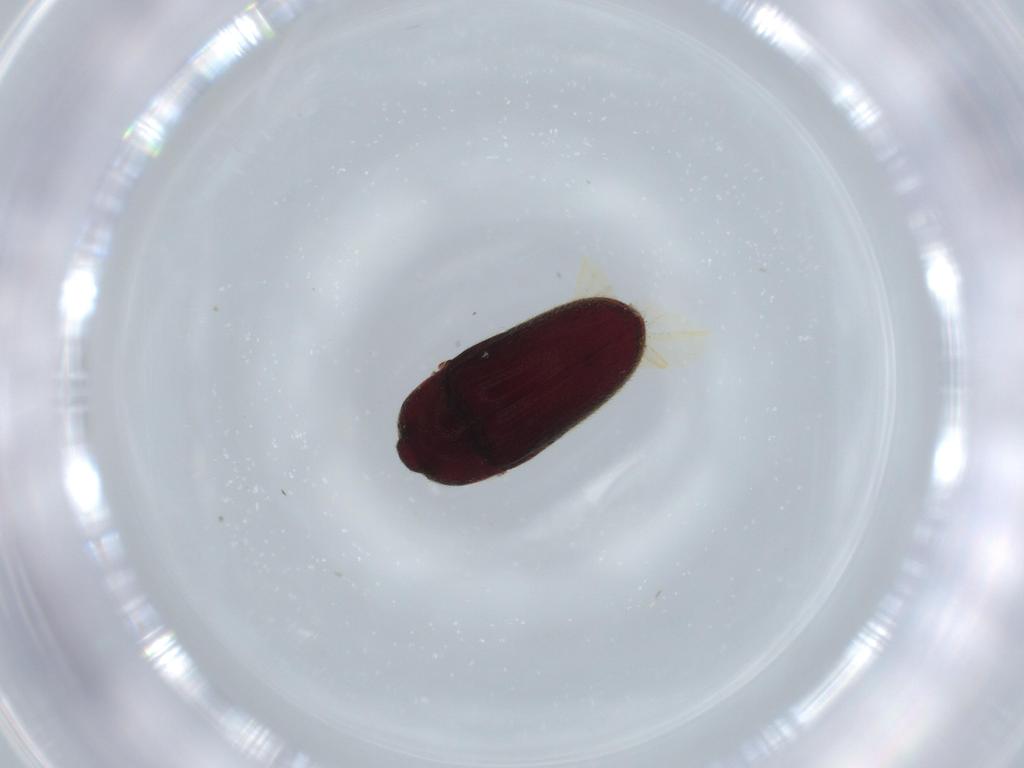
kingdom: Animalia
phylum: Arthropoda
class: Insecta
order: Coleoptera
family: Throscidae
